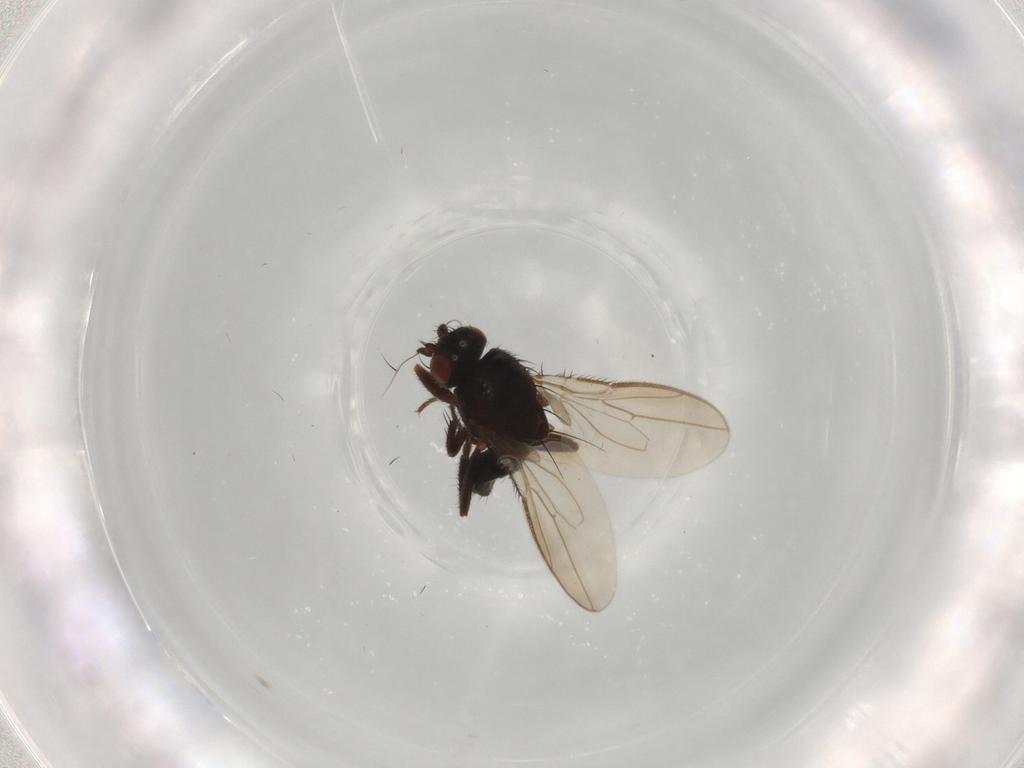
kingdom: Animalia
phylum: Arthropoda
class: Insecta
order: Diptera
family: Sphaeroceridae
